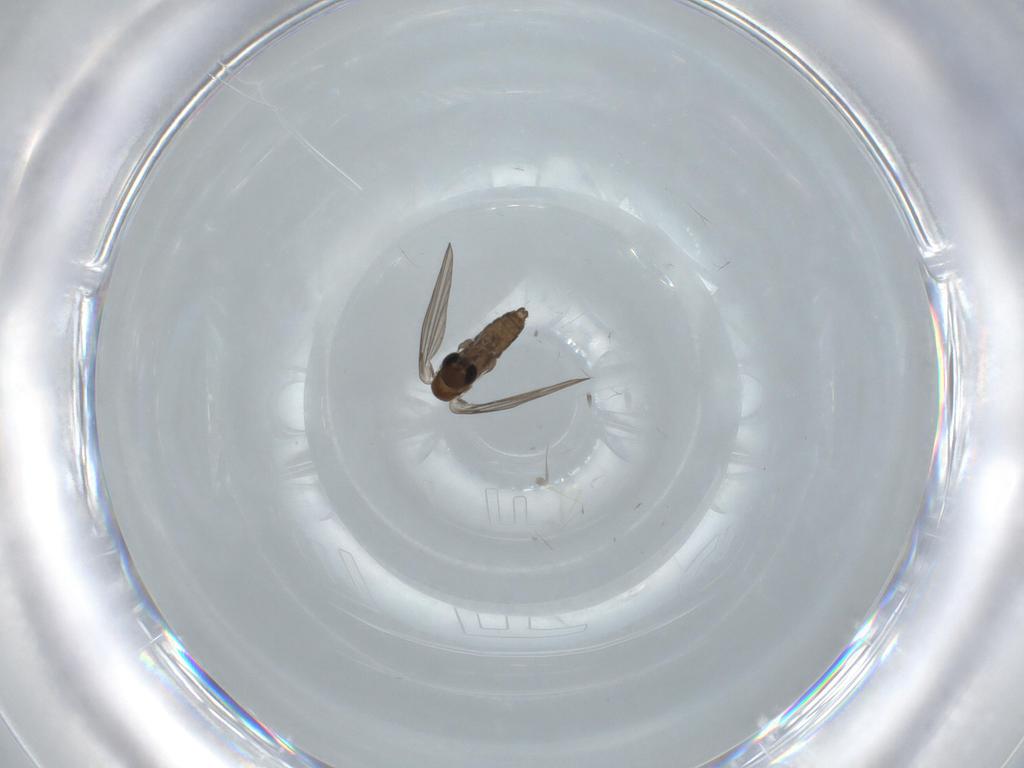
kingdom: Animalia
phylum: Arthropoda
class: Insecta
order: Diptera
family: Psychodidae
